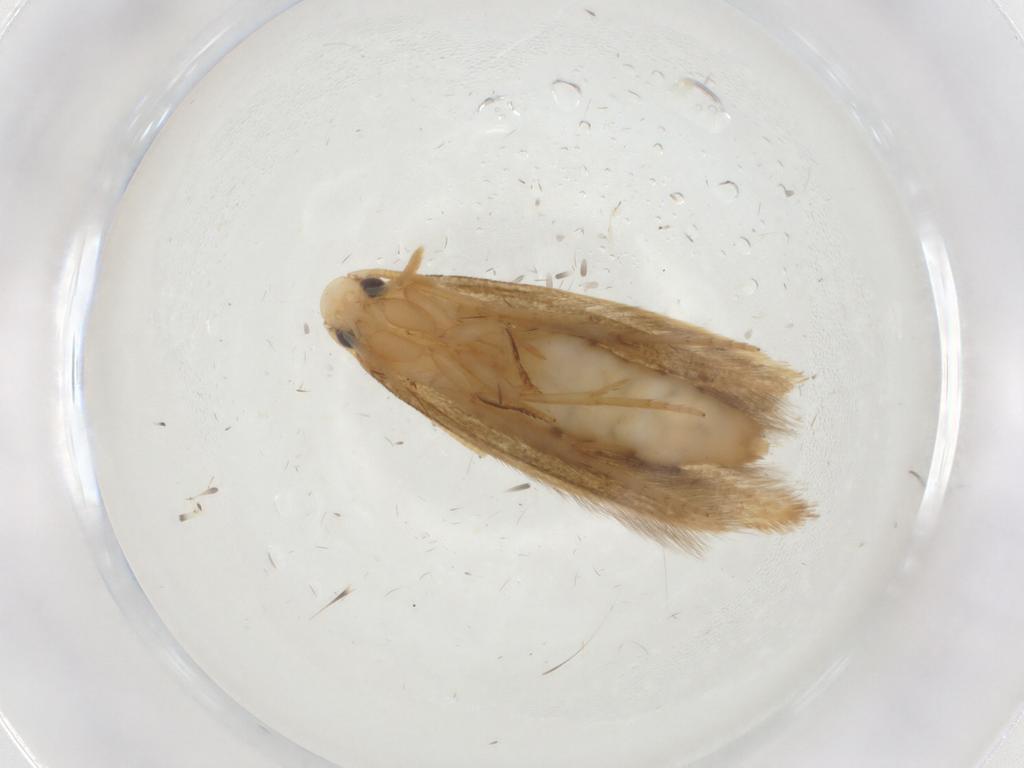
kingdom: Animalia
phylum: Arthropoda
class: Insecta
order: Lepidoptera
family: Tineidae
